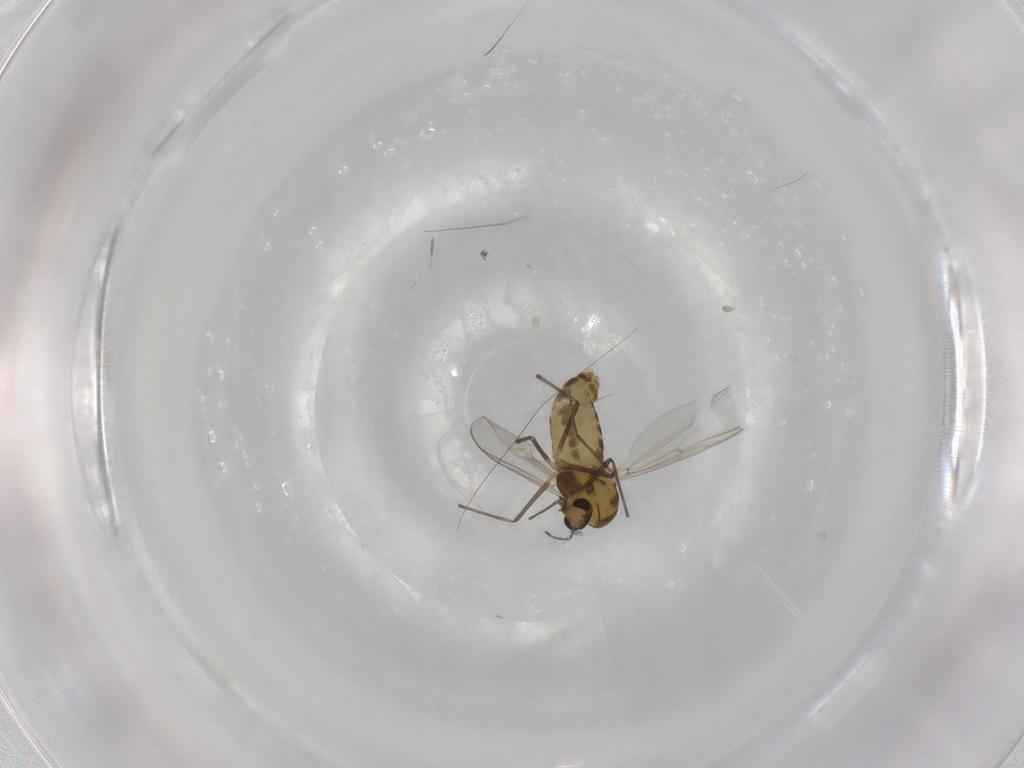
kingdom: Animalia
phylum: Arthropoda
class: Insecta
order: Diptera
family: Chironomidae
